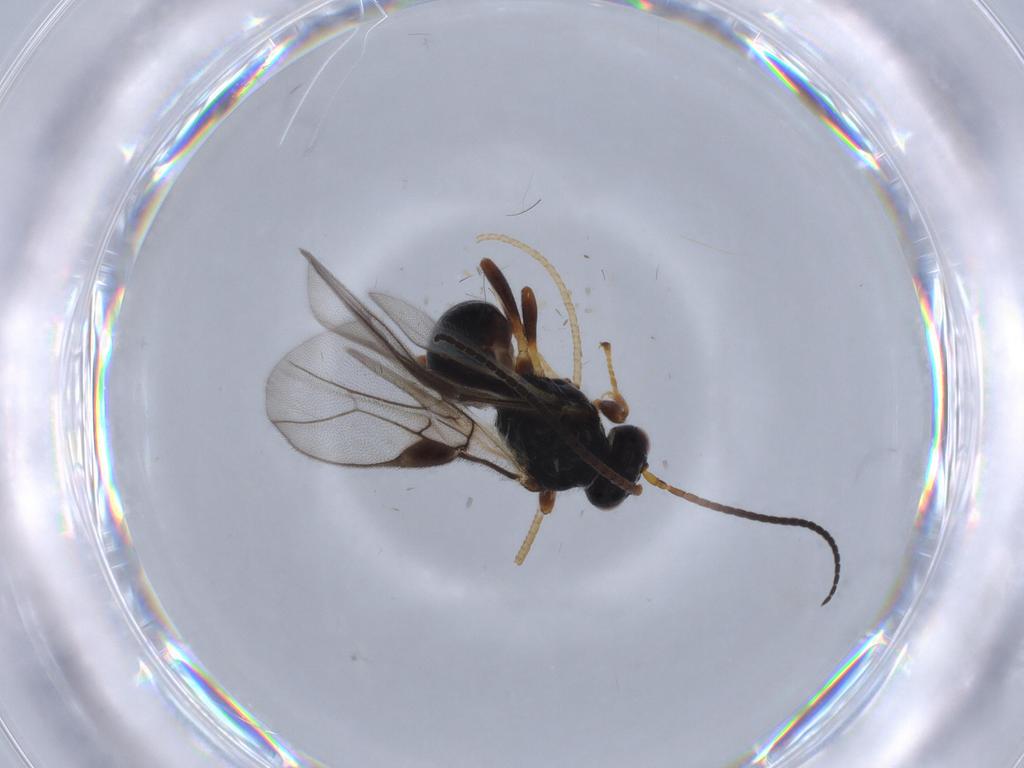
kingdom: Animalia
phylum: Arthropoda
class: Insecta
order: Hymenoptera
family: Braconidae
